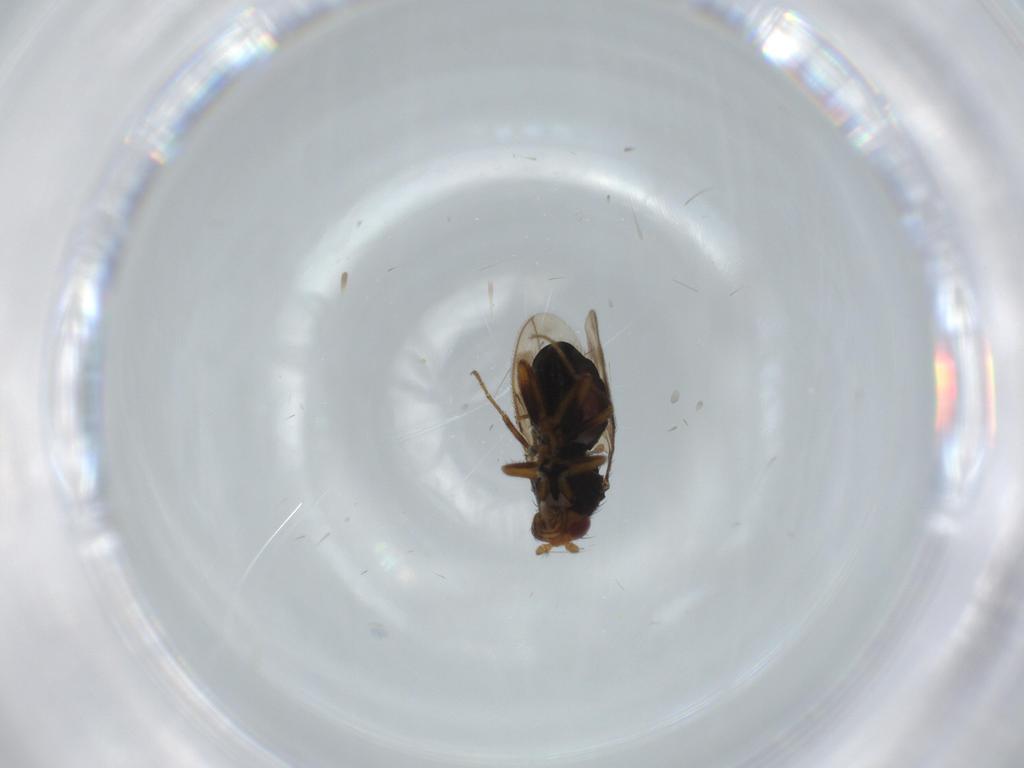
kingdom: Animalia
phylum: Arthropoda
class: Insecta
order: Diptera
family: Sphaeroceridae
